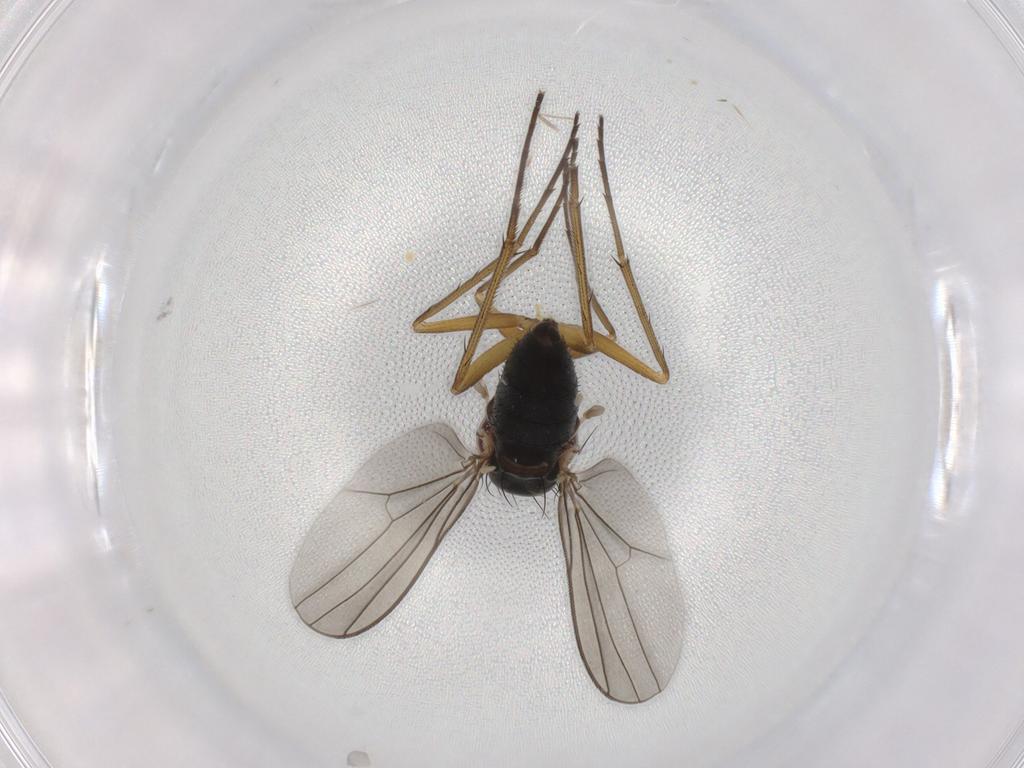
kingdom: Animalia
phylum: Arthropoda
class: Insecta
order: Diptera
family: Dolichopodidae
